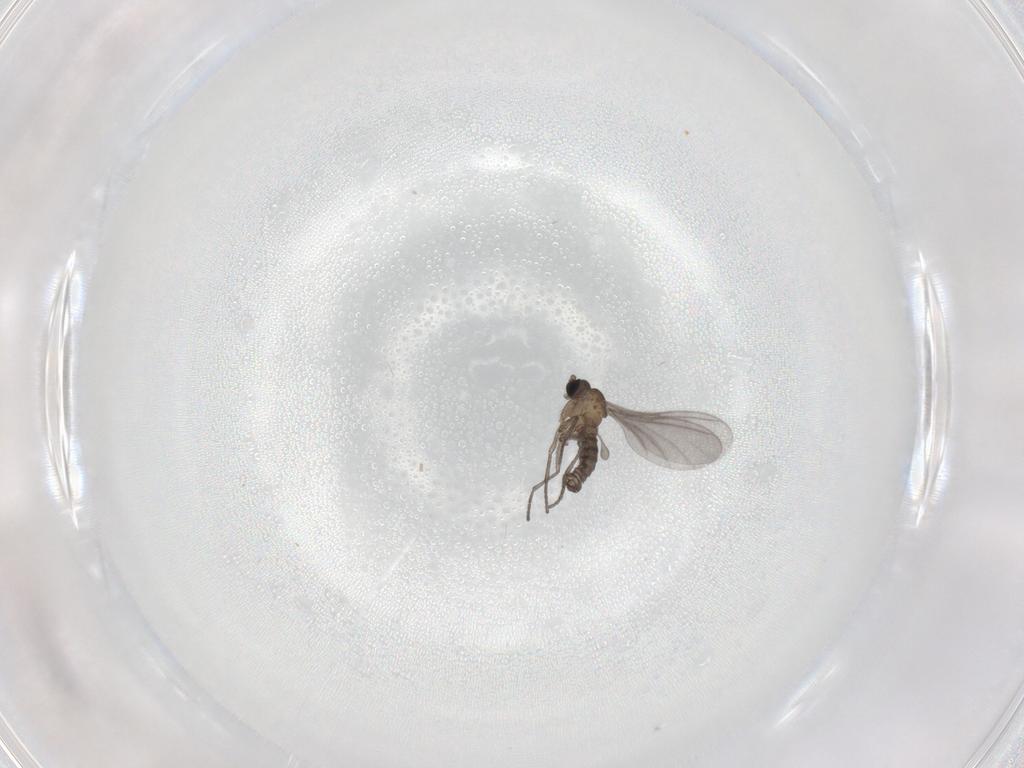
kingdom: Animalia
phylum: Arthropoda
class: Insecta
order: Diptera
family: Sciaridae
